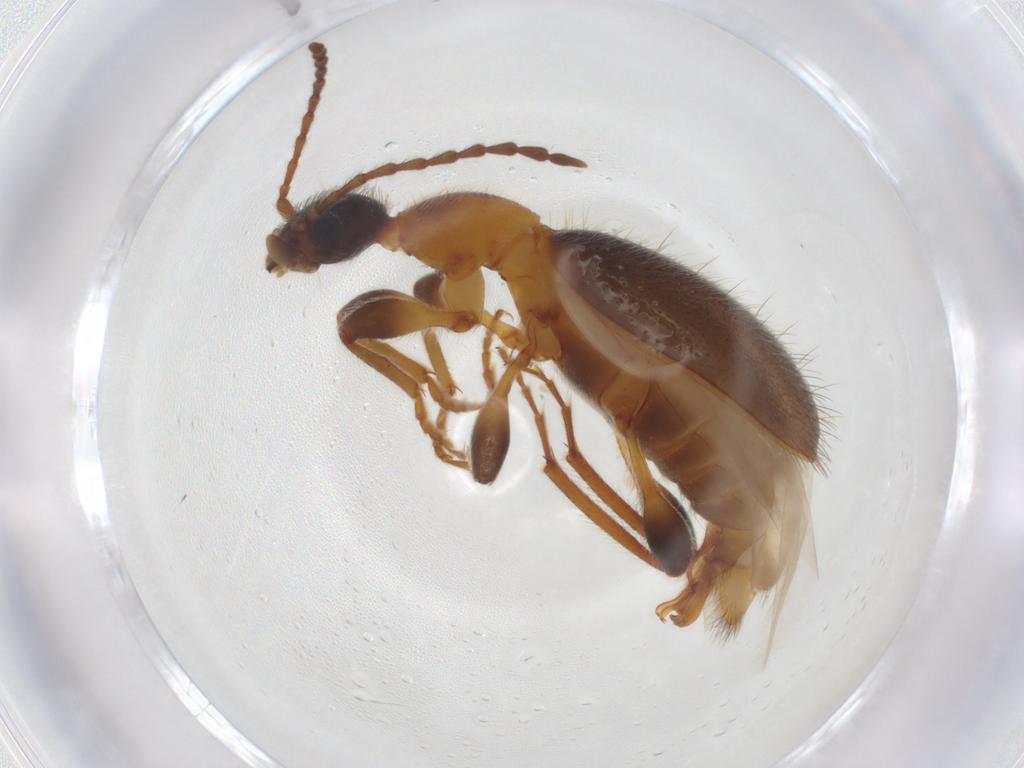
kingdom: Animalia
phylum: Arthropoda
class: Insecta
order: Coleoptera
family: Anthicidae
